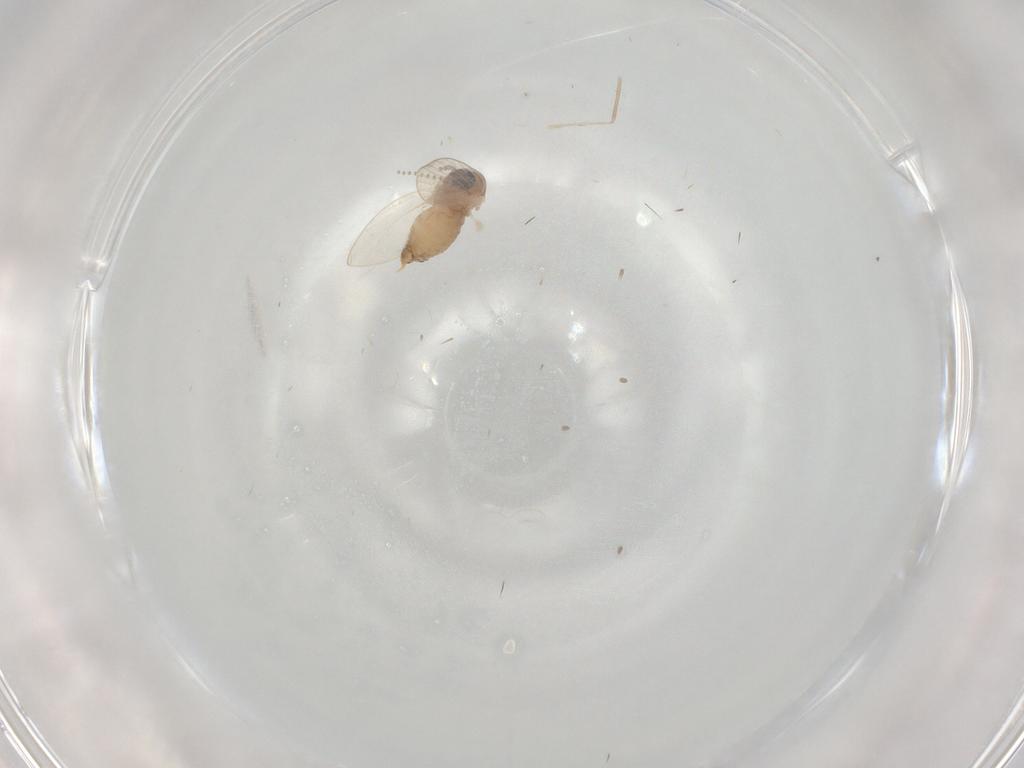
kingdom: Animalia
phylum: Arthropoda
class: Insecta
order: Diptera
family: Psychodidae
